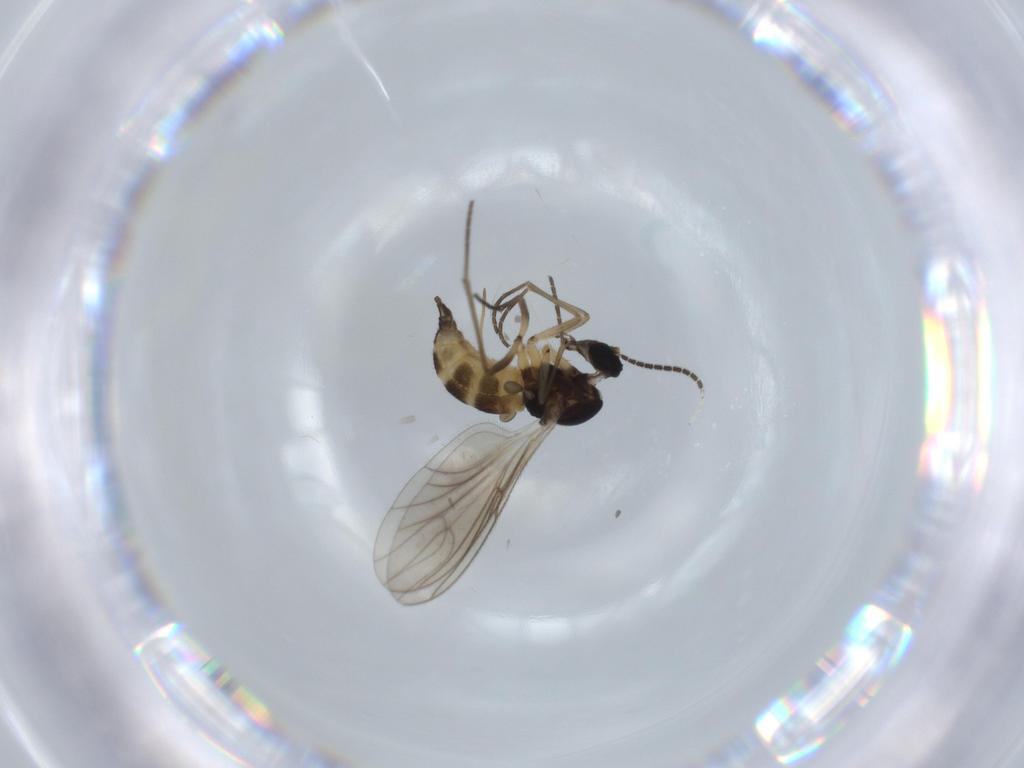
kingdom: Animalia
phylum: Arthropoda
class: Insecta
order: Diptera
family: Sciaridae
